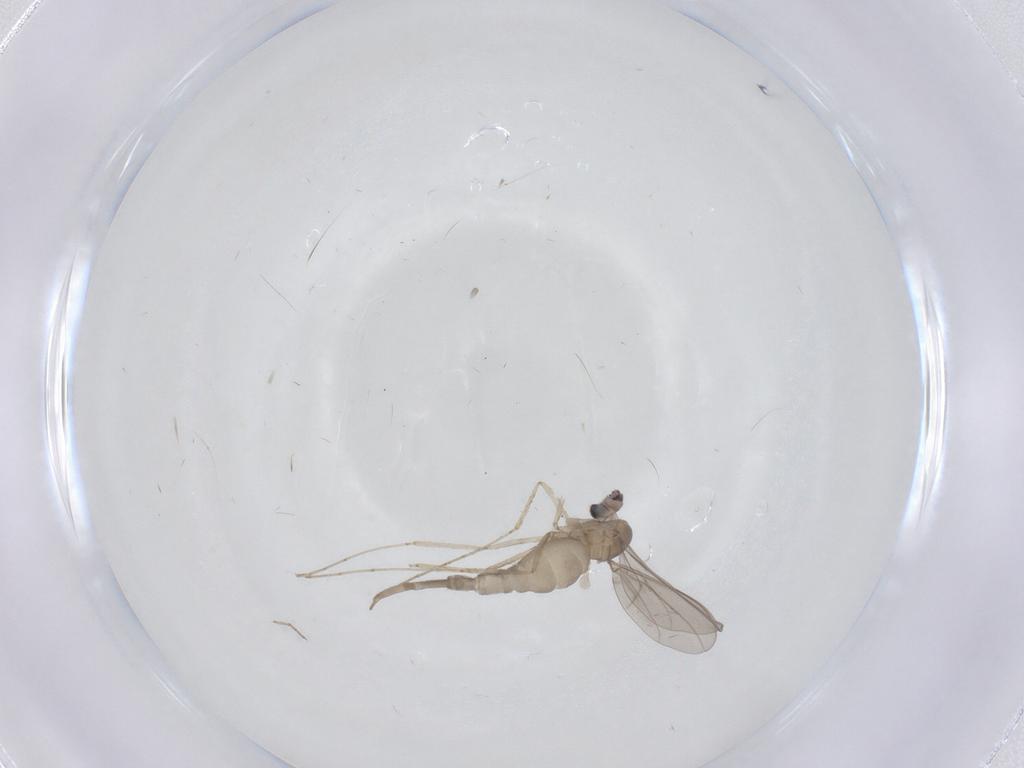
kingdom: Animalia
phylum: Arthropoda
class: Insecta
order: Diptera
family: Cecidomyiidae
